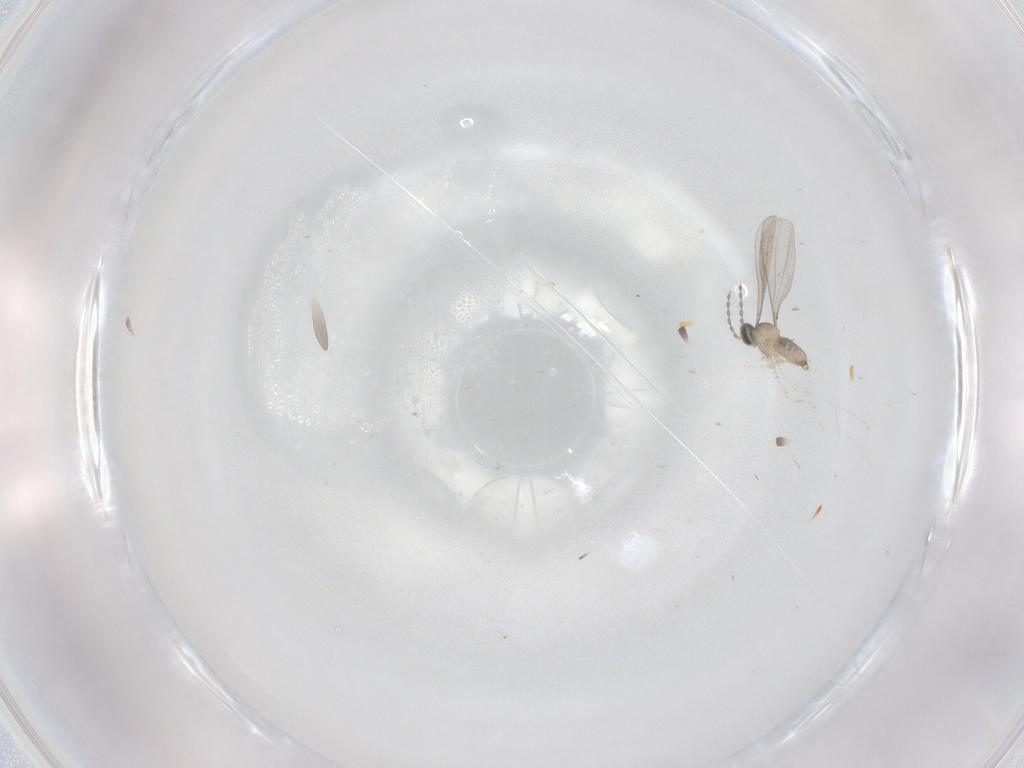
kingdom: Animalia
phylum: Arthropoda
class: Insecta
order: Diptera
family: Cecidomyiidae
